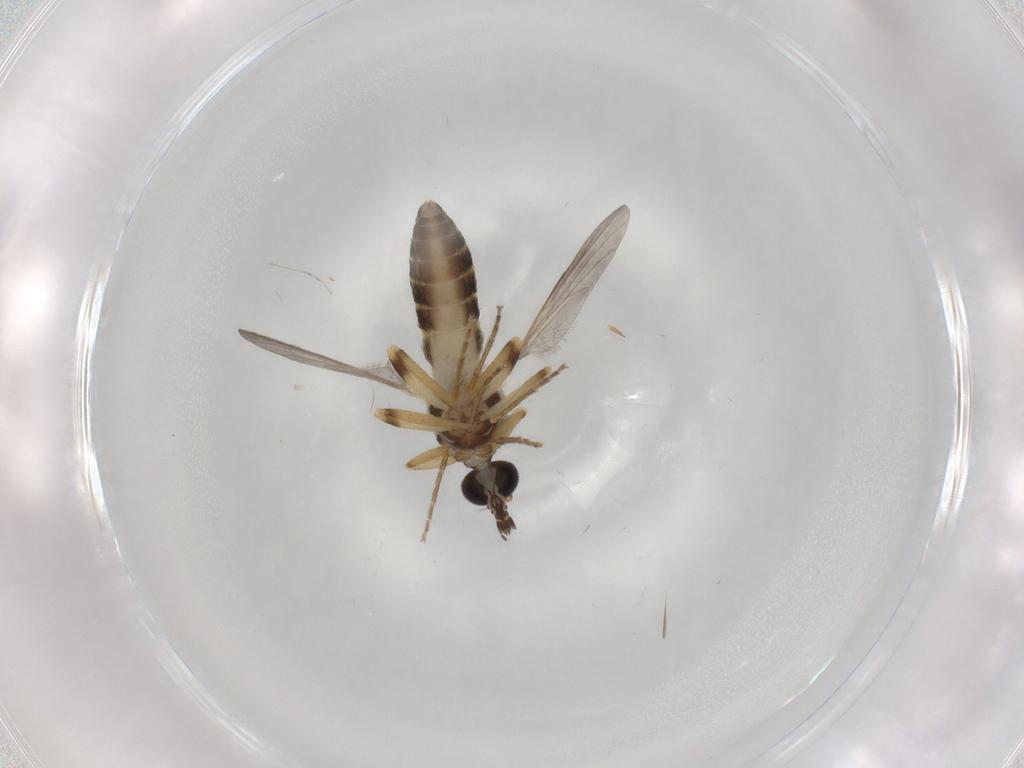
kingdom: Animalia
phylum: Arthropoda
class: Insecta
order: Diptera
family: Ceratopogonidae
